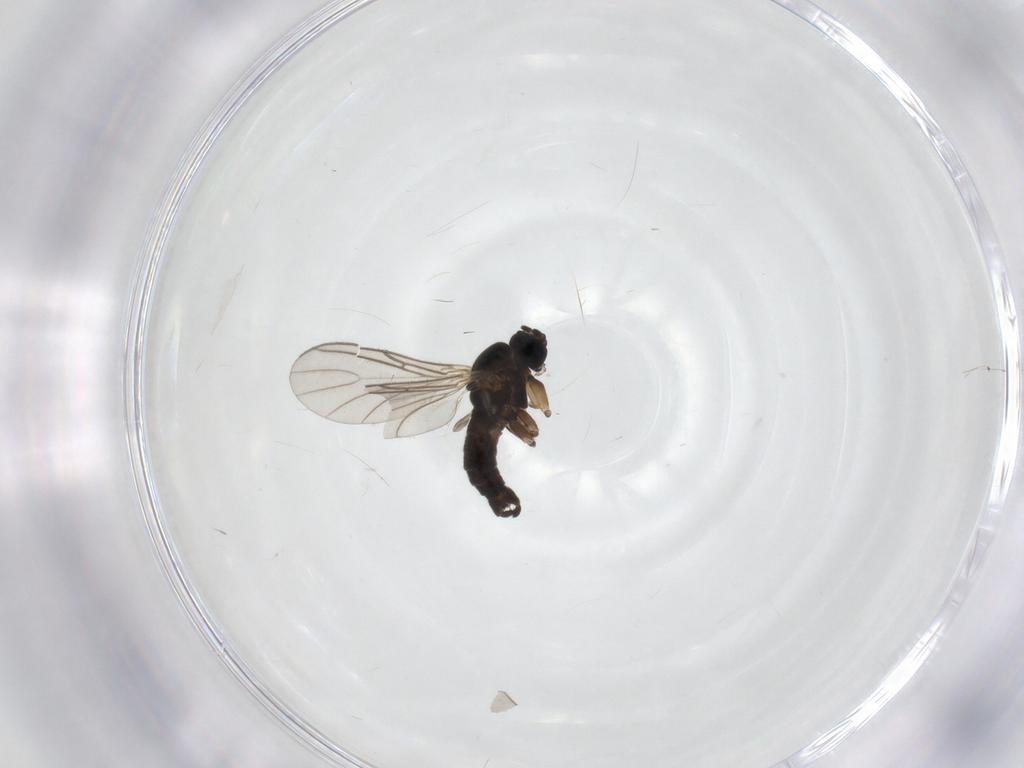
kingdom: Animalia
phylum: Arthropoda
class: Insecta
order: Diptera
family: Sciaridae
